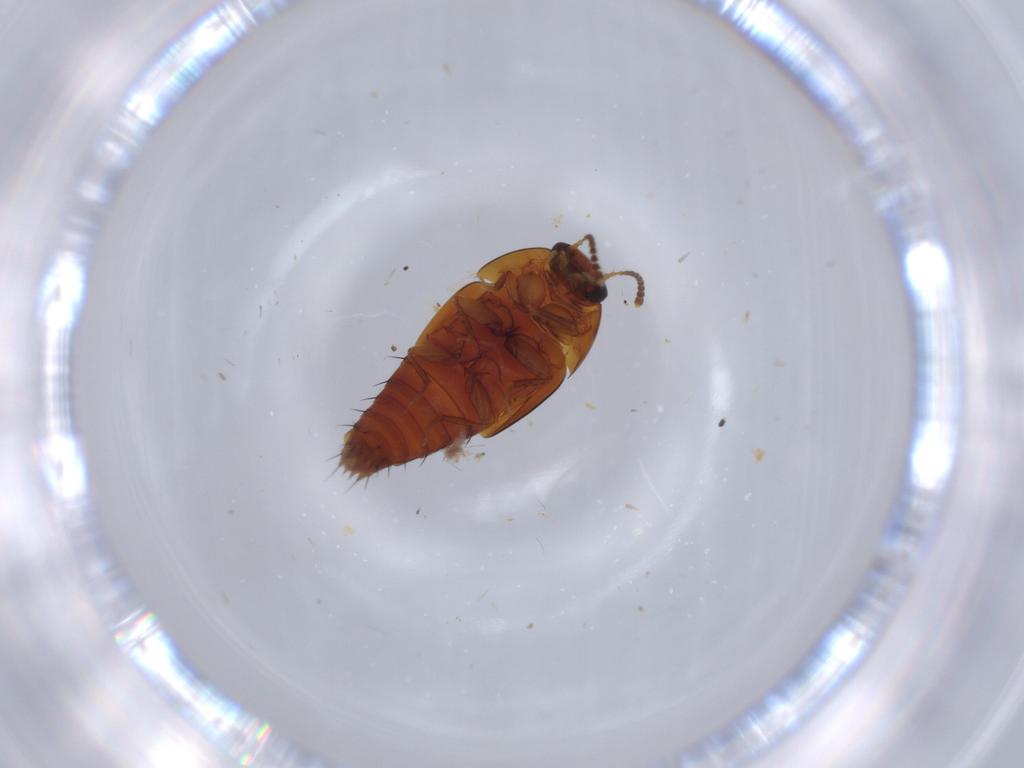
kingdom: Animalia
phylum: Arthropoda
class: Insecta
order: Coleoptera
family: Staphylinidae
